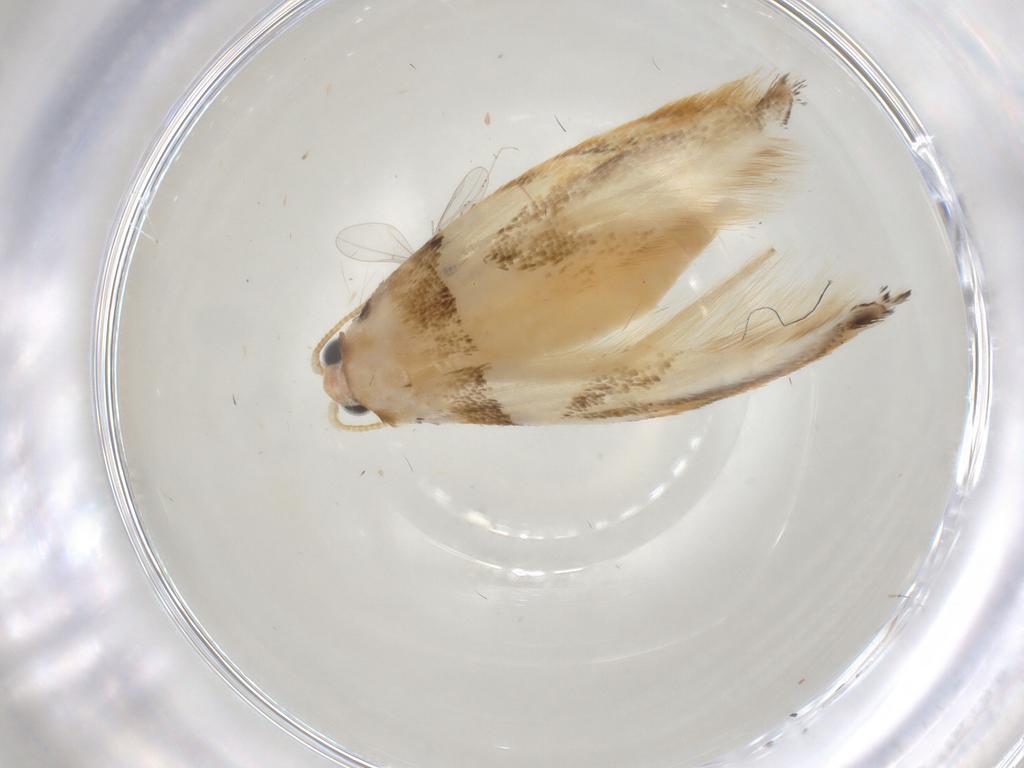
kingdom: Animalia
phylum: Arthropoda
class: Insecta
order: Lepidoptera
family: Tineidae
